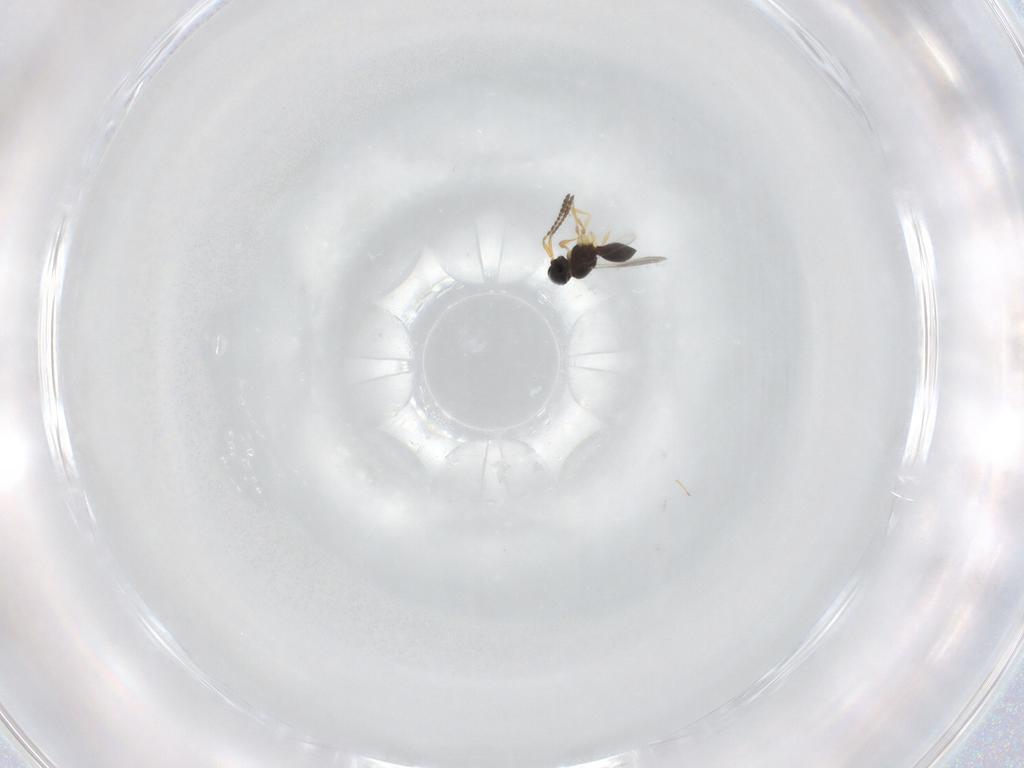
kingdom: Animalia
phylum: Arthropoda
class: Insecta
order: Hymenoptera
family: Scelionidae
